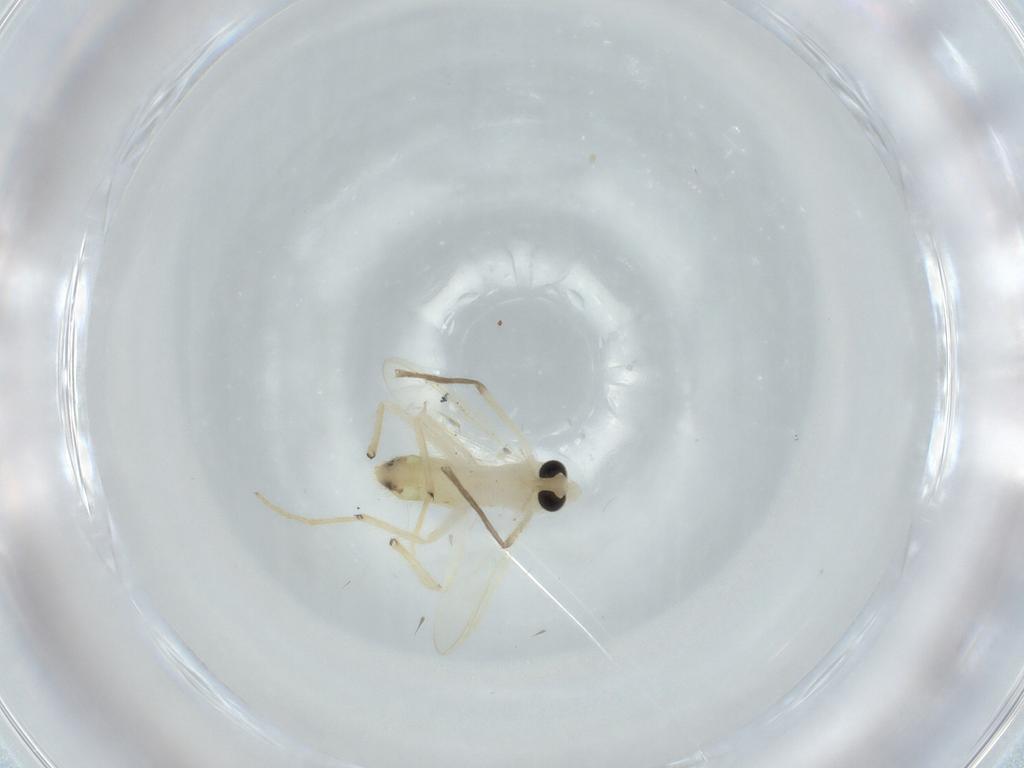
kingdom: Animalia
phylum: Arthropoda
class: Insecta
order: Diptera
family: Chironomidae
